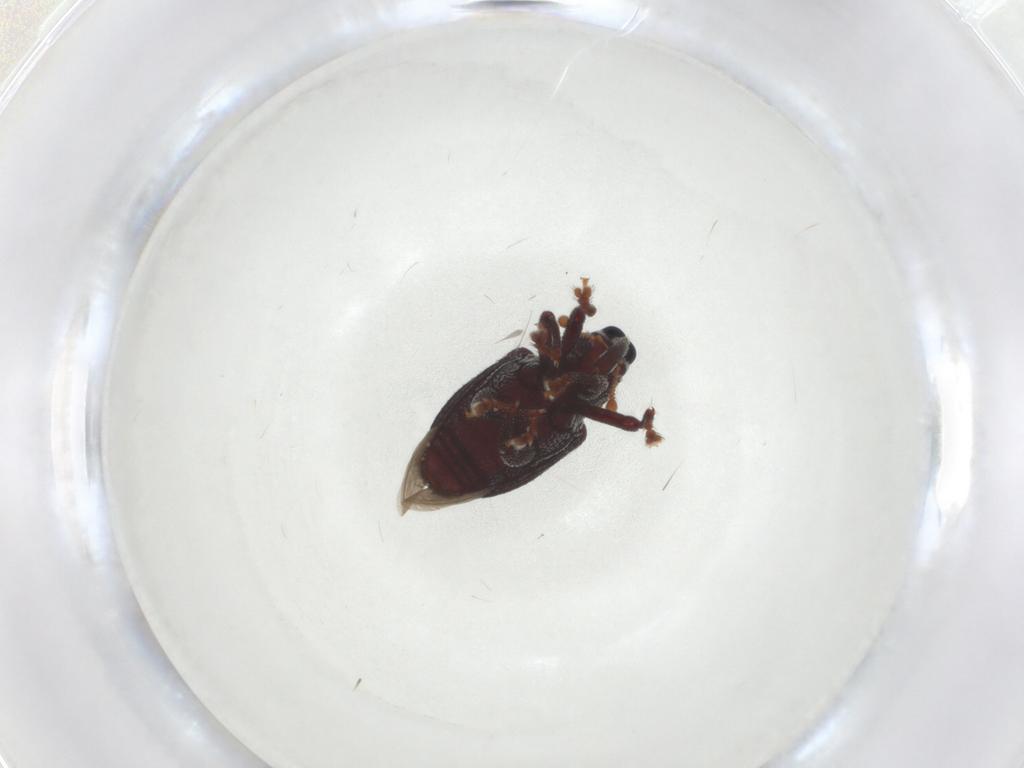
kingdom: Animalia
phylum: Arthropoda
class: Insecta
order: Coleoptera
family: Curculionidae
